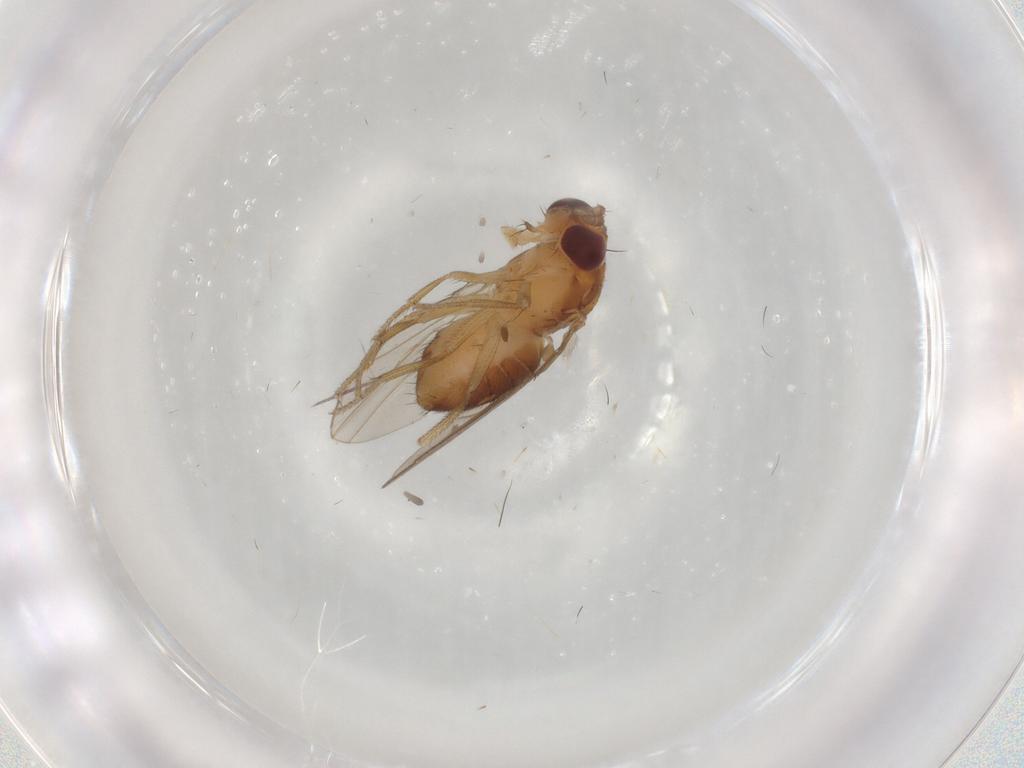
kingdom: Animalia
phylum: Arthropoda
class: Insecta
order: Diptera
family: Drosophilidae
